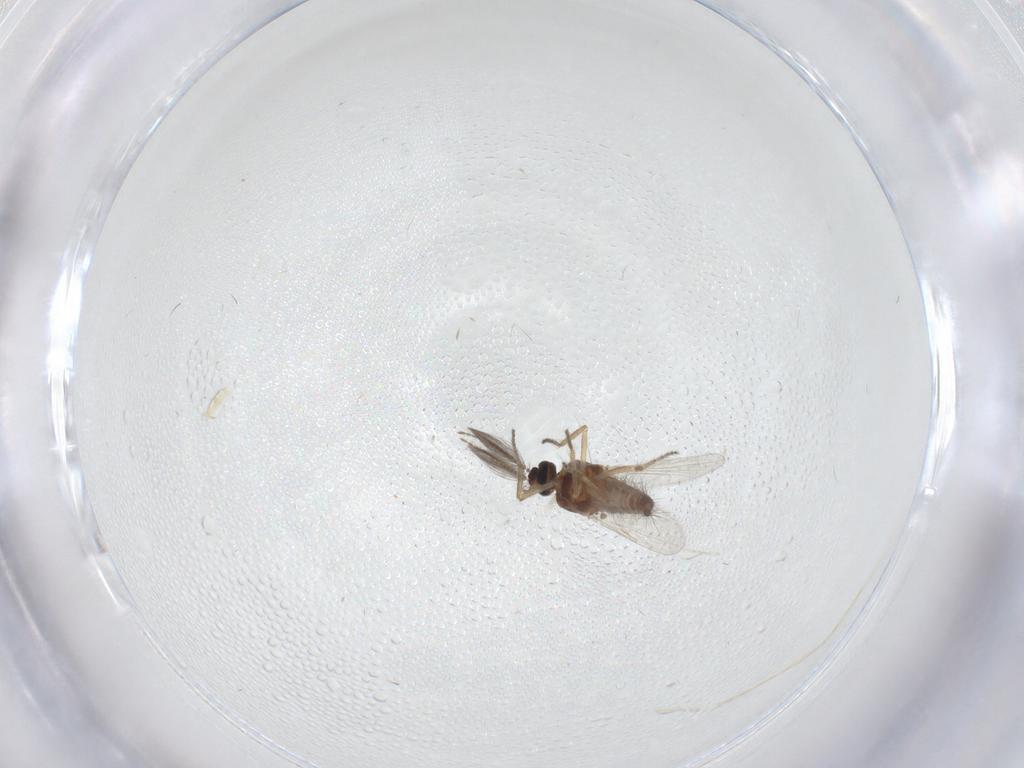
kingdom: Animalia
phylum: Arthropoda
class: Insecta
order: Diptera
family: Ceratopogonidae
